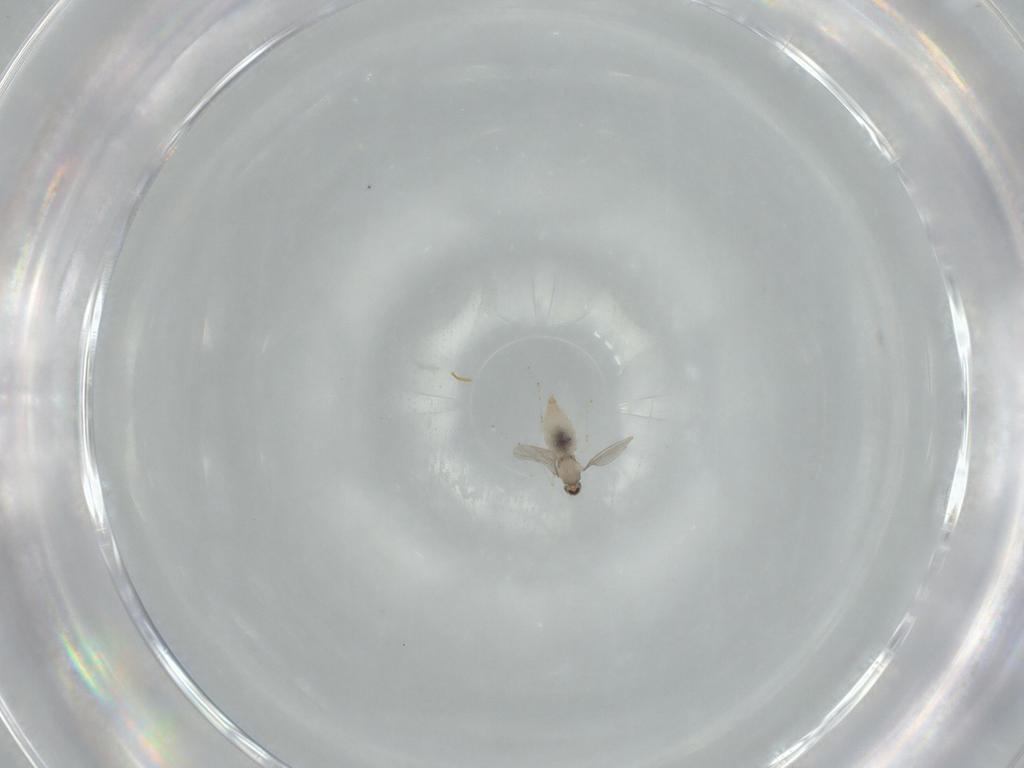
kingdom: Animalia
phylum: Arthropoda
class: Insecta
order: Diptera
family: Cecidomyiidae
